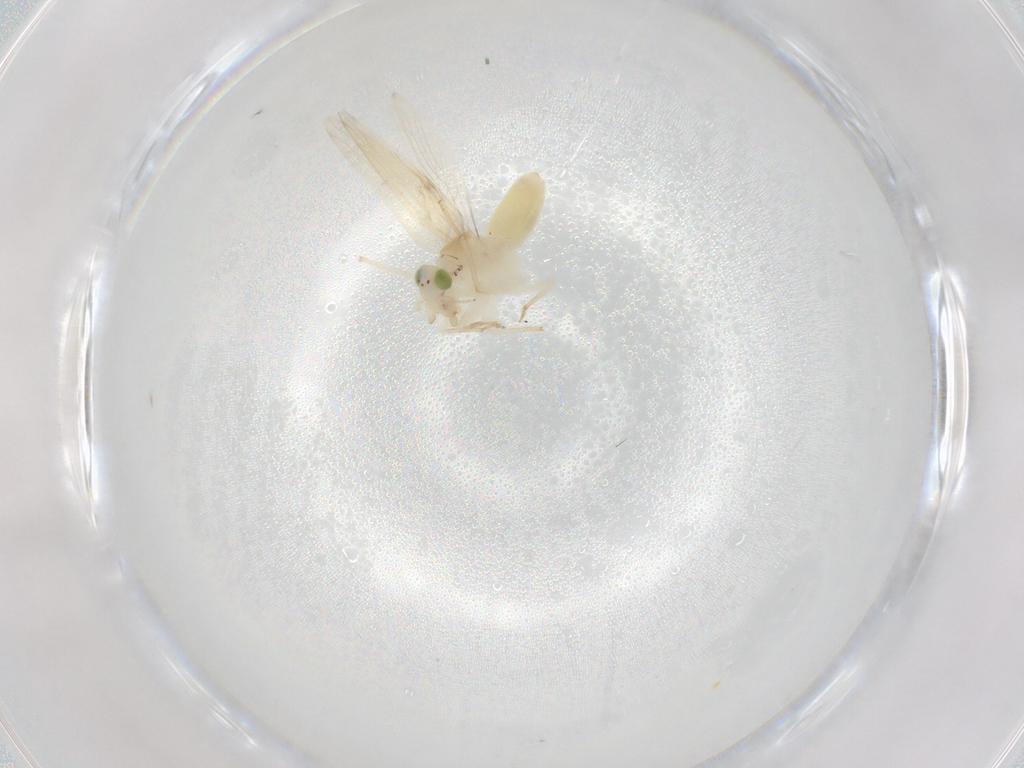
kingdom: Animalia
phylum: Arthropoda
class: Insecta
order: Psocodea
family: Lepidopsocidae
